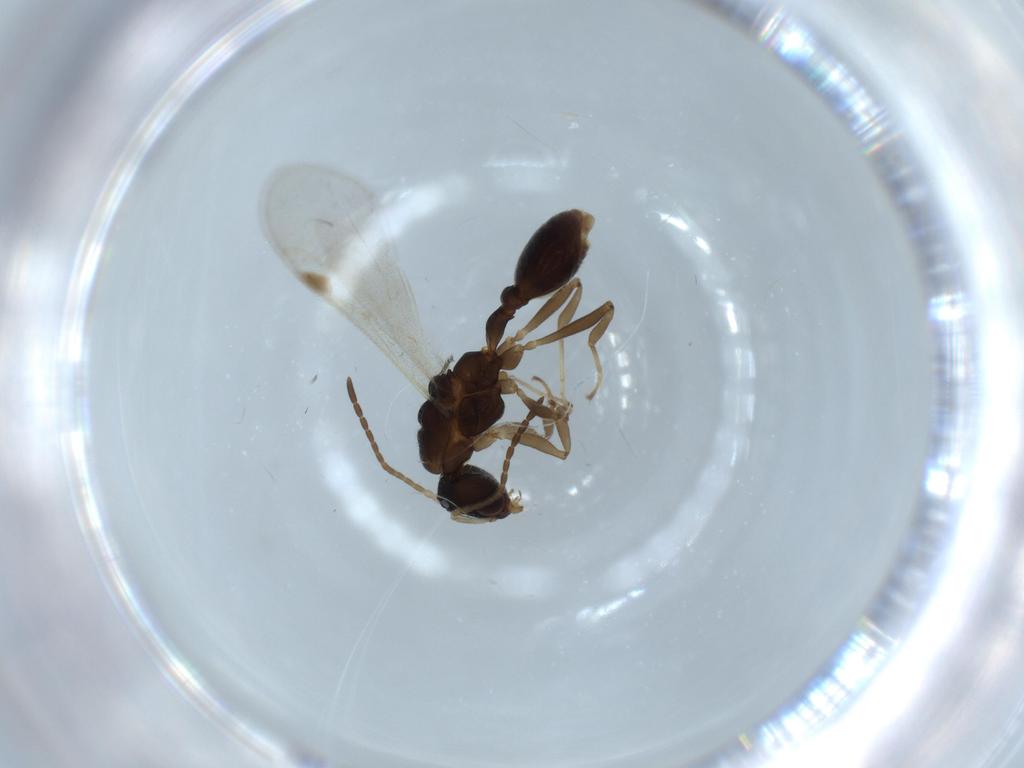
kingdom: Animalia
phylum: Arthropoda
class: Insecta
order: Hymenoptera
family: Formicidae
